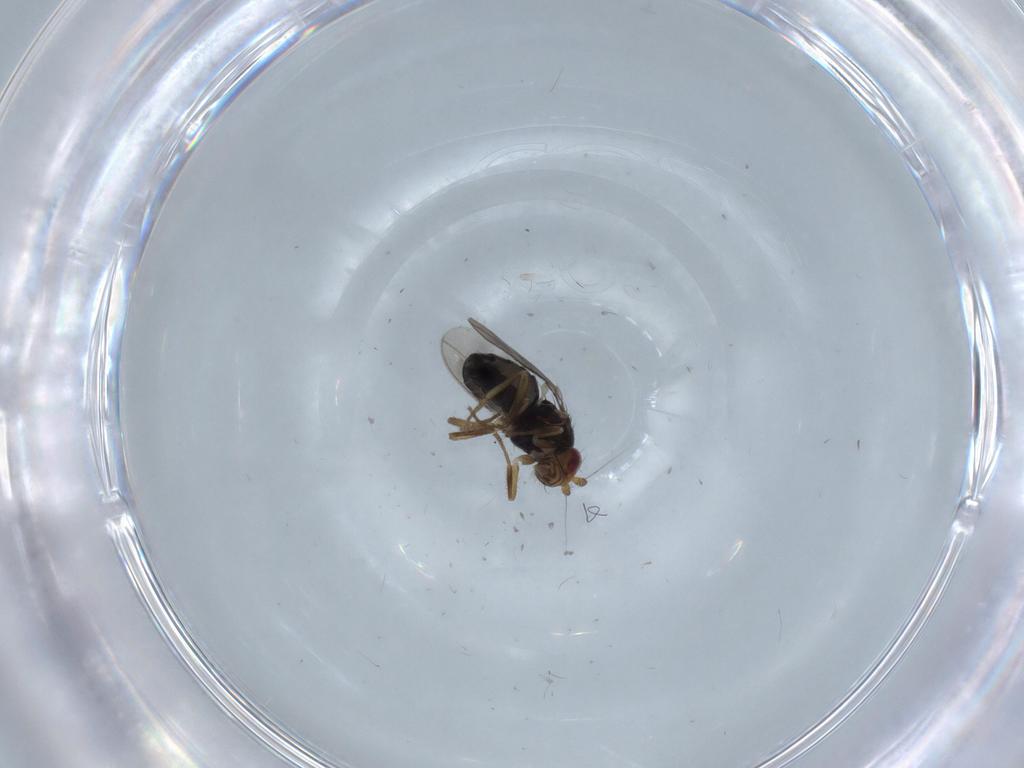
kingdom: Animalia
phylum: Arthropoda
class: Insecta
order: Diptera
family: Sphaeroceridae
